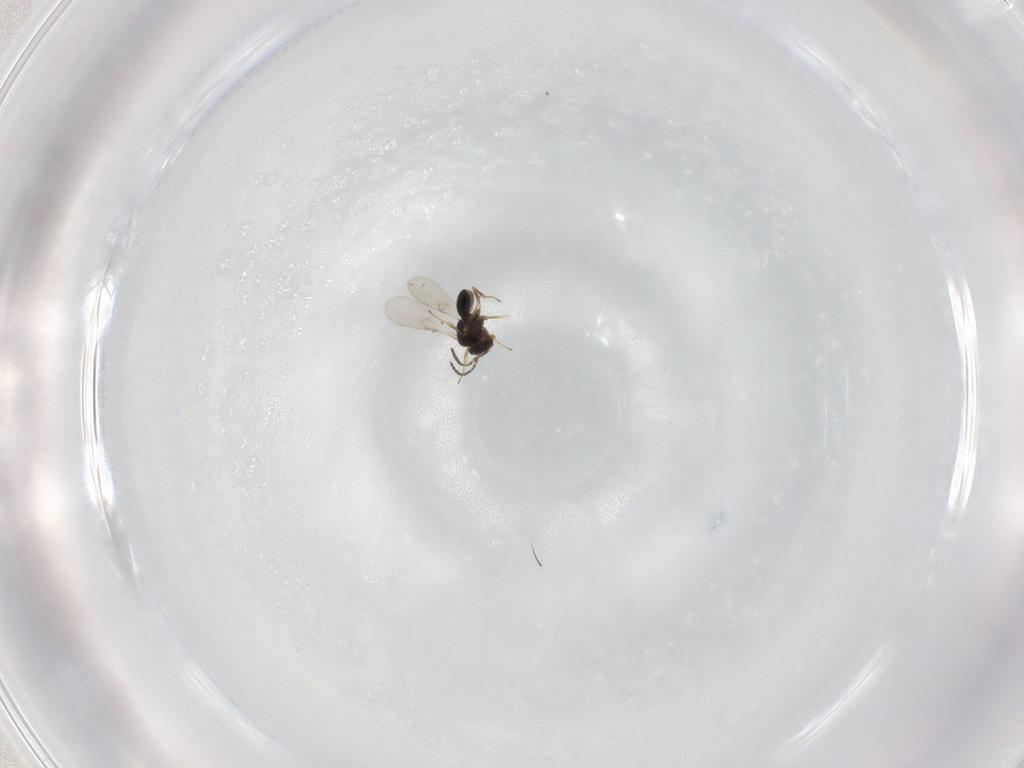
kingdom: Animalia
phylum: Arthropoda
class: Insecta
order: Hymenoptera
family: Scelionidae
